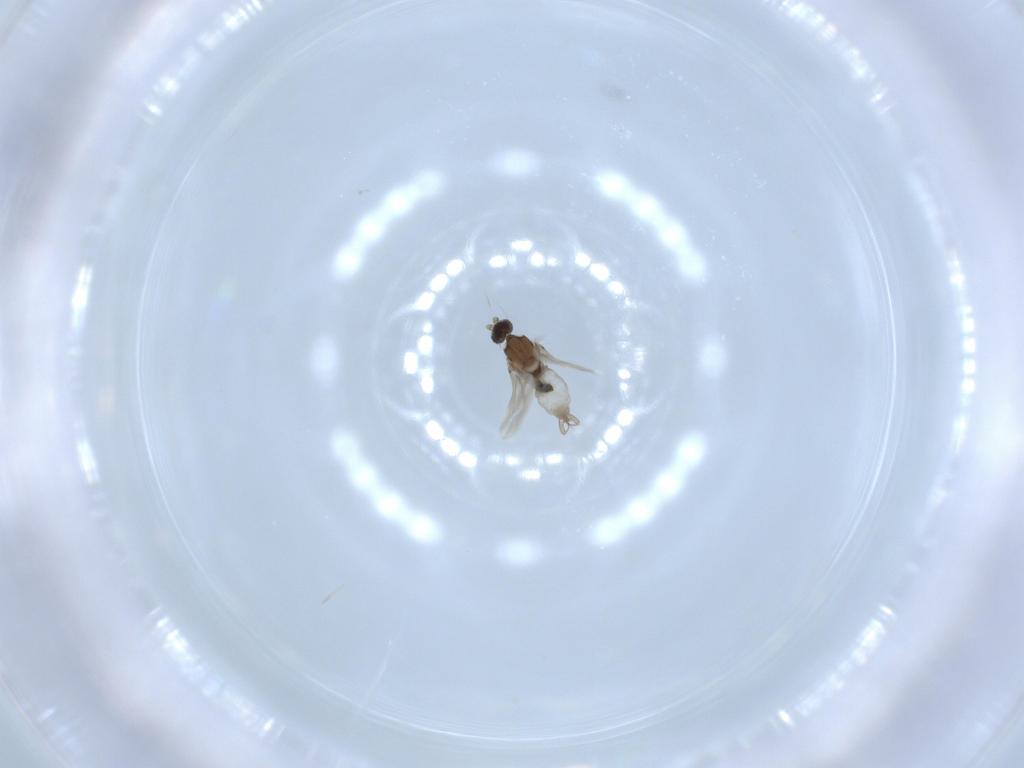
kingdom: Animalia
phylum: Arthropoda
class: Insecta
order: Diptera
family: Cecidomyiidae
